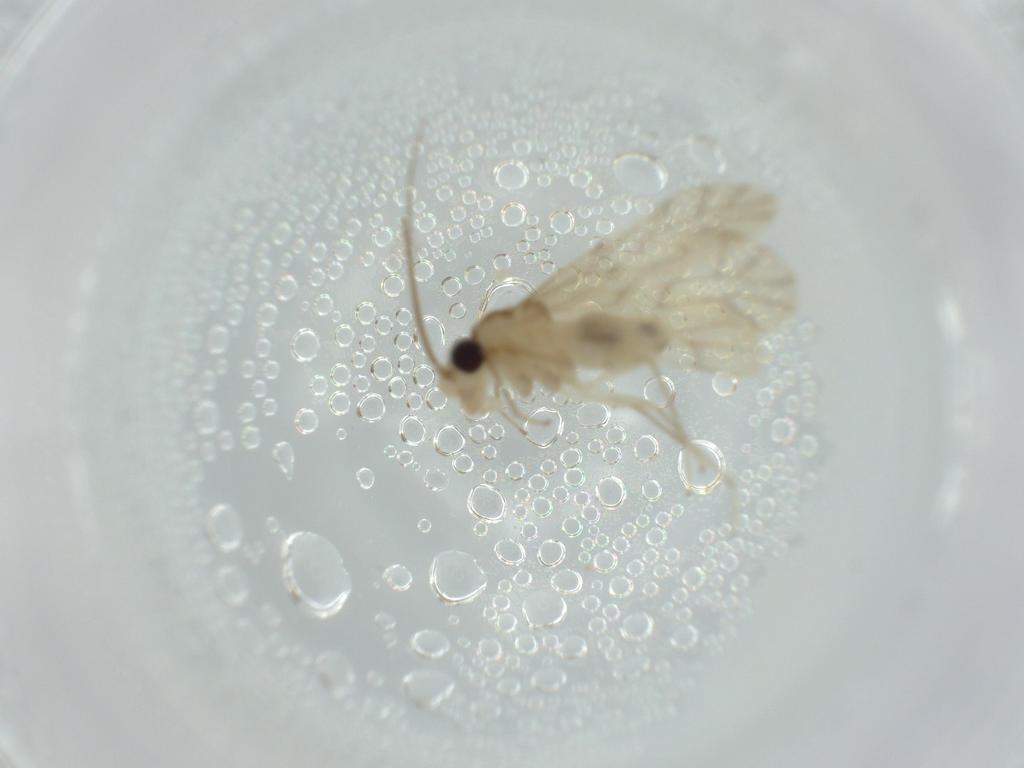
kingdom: Animalia
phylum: Arthropoda
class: Insecta
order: Psocodea
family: Caeciliusidae
